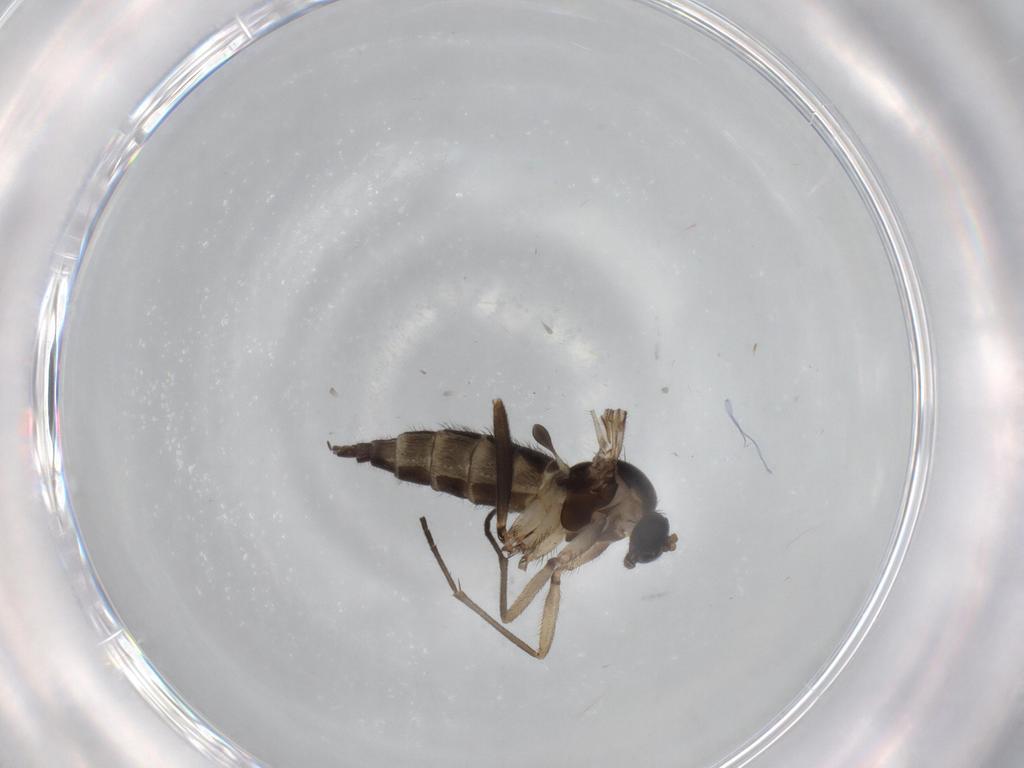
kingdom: Animalia
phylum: Arthropoda
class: Insecta
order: Diptera
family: Sciaridae
